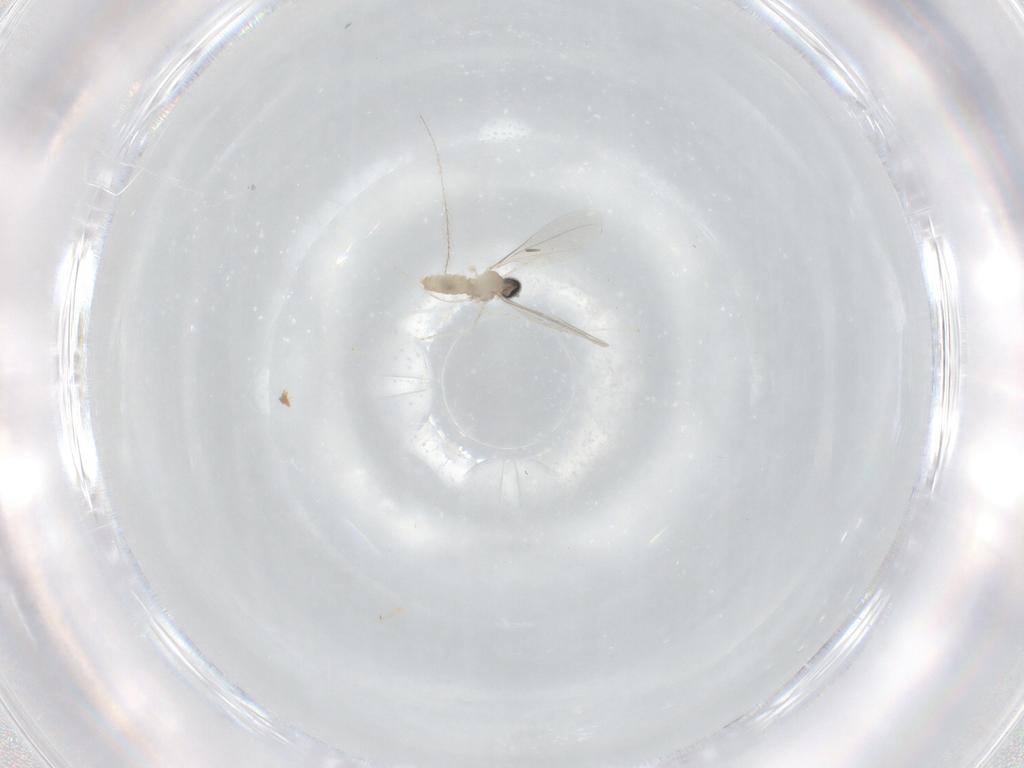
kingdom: Animalia
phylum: Arthropoda
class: Insecta
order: Diptera
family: Cecidomyiidae
